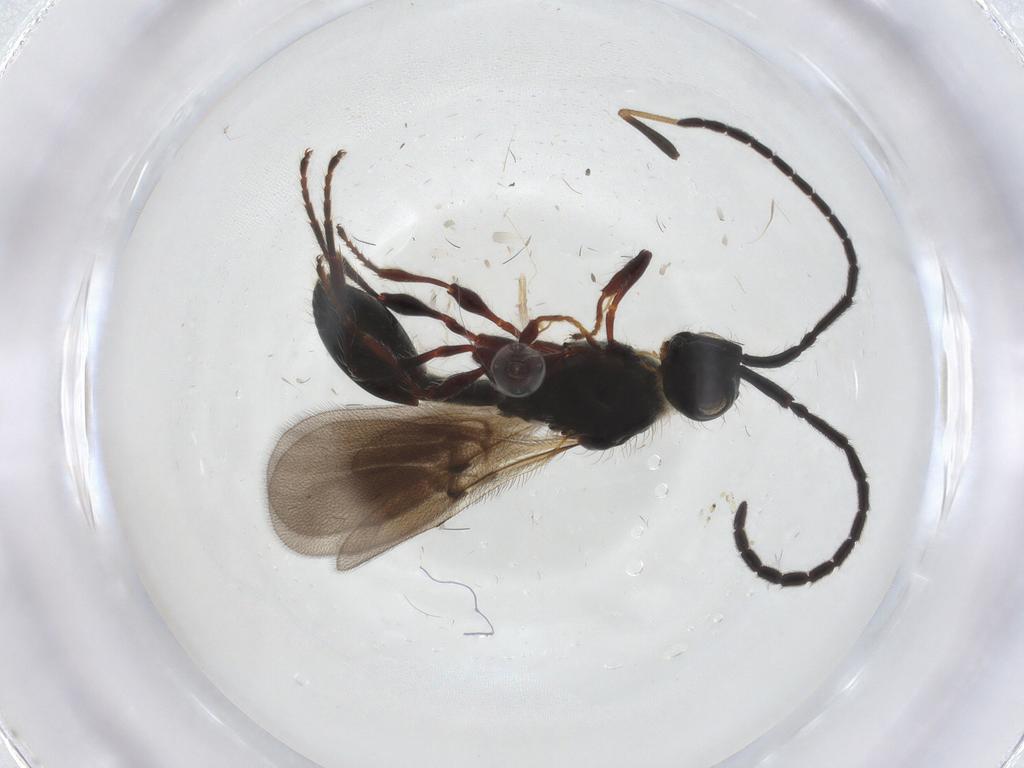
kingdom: Animalia
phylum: Arthropoda
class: Insecta
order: Hymenoptera
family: Diapriidae
